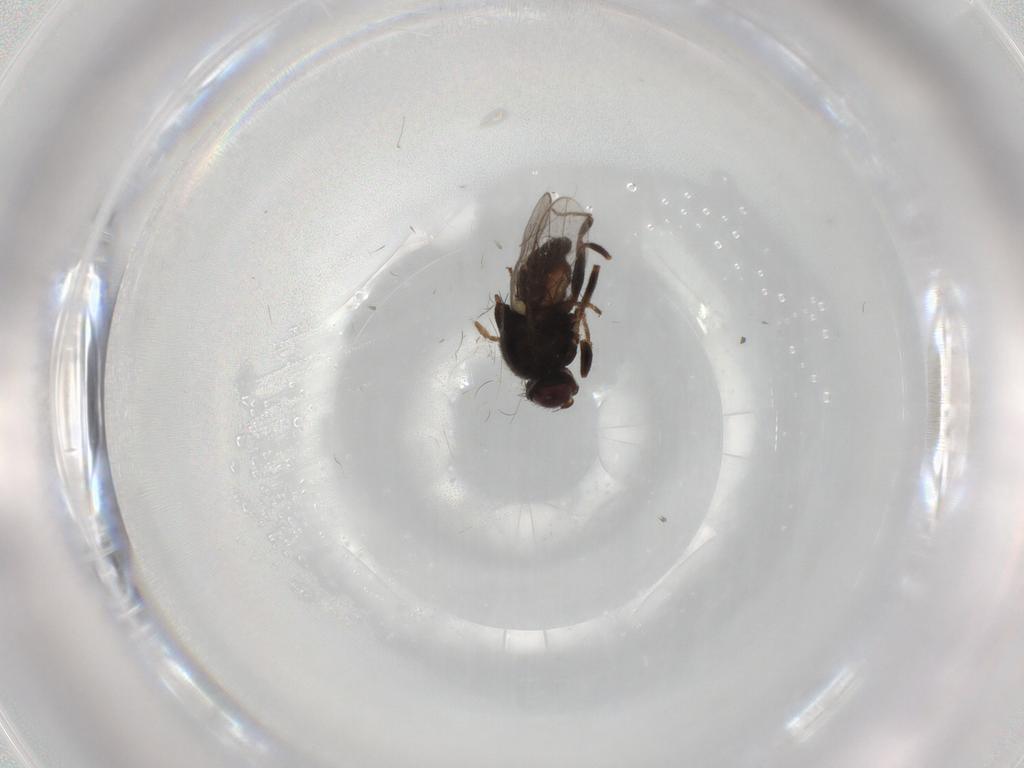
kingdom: Animalia
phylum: Arthropoda
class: Insecta
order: Diptera
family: Chloropidae
